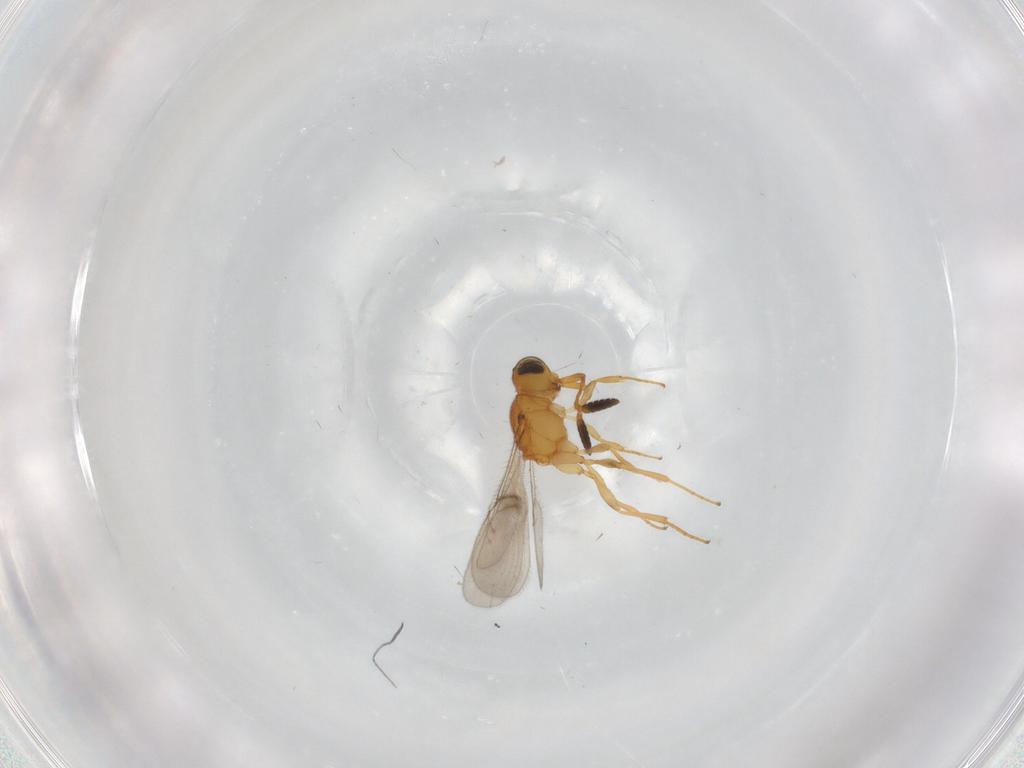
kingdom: Animalia
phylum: Arthropoda
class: Insecta
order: Hymenoptera
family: Scelionidae
